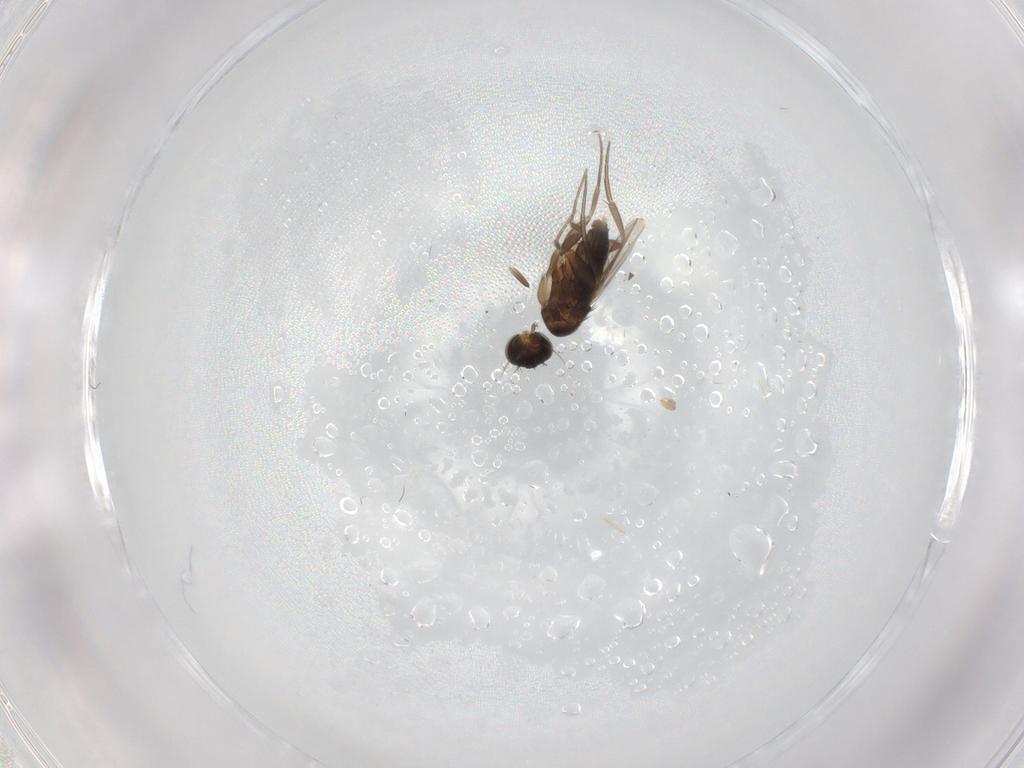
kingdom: Animalia
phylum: Arthropoda
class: Insecta
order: Diptera
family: Phoridae
